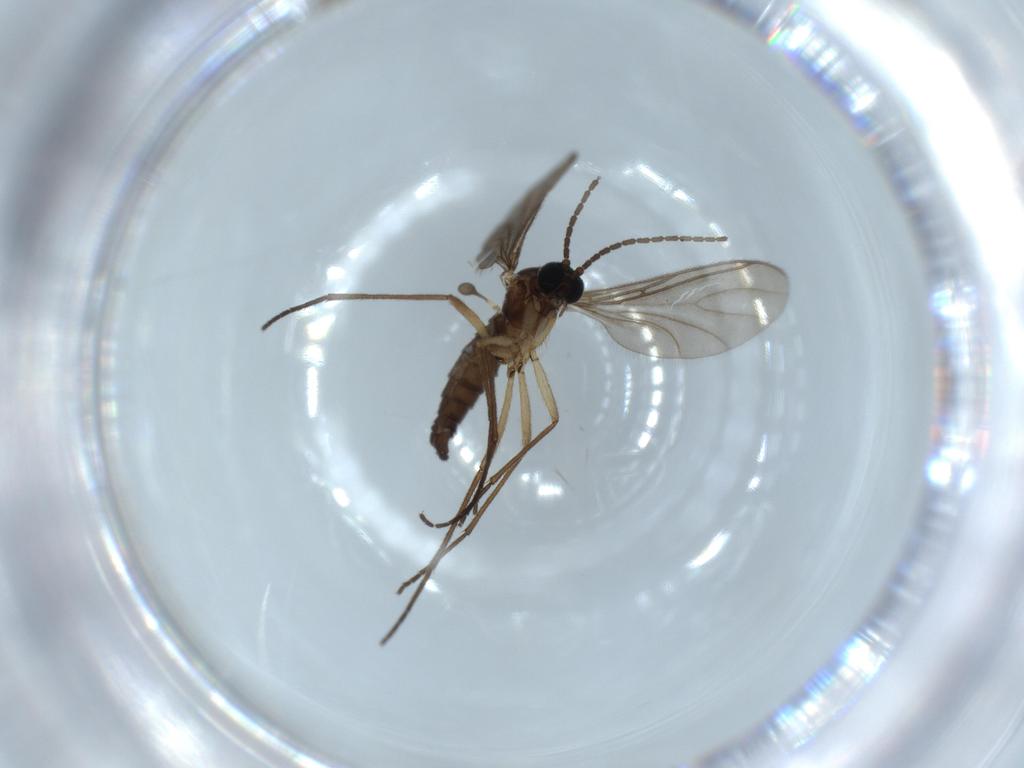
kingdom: Animalia
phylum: Arthropoda
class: Insecta
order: Diptera
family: Sciaridae
